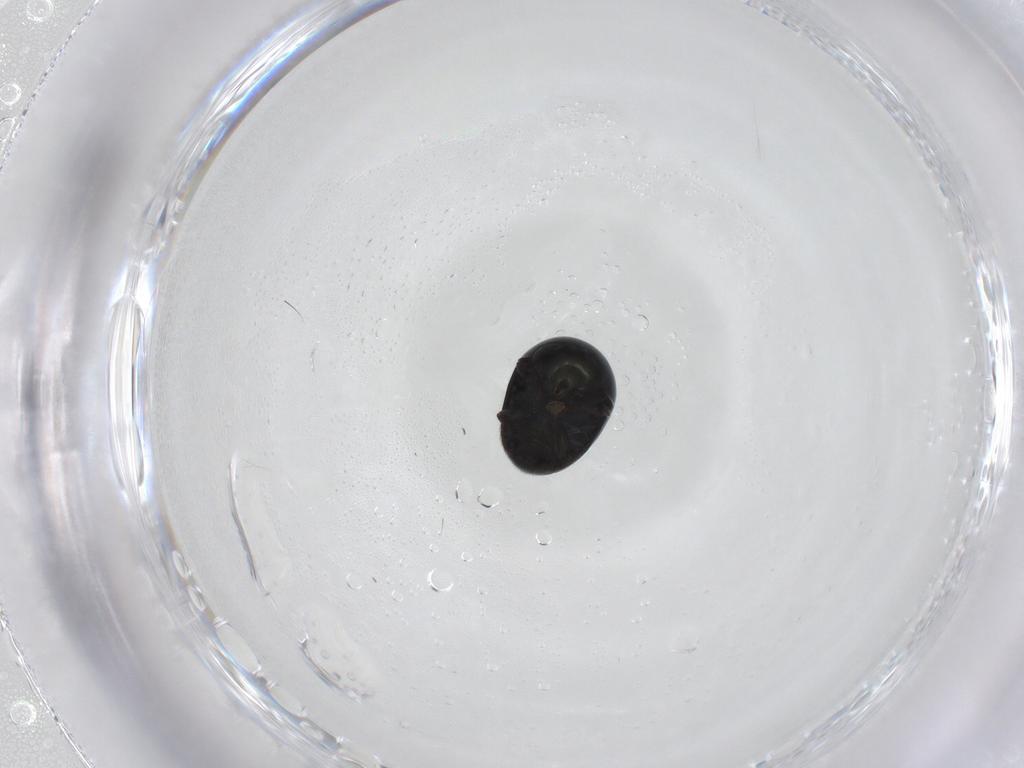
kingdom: Animalia
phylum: Arthropoda
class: Insecta
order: Coleoptera
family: Cybocephalidae
